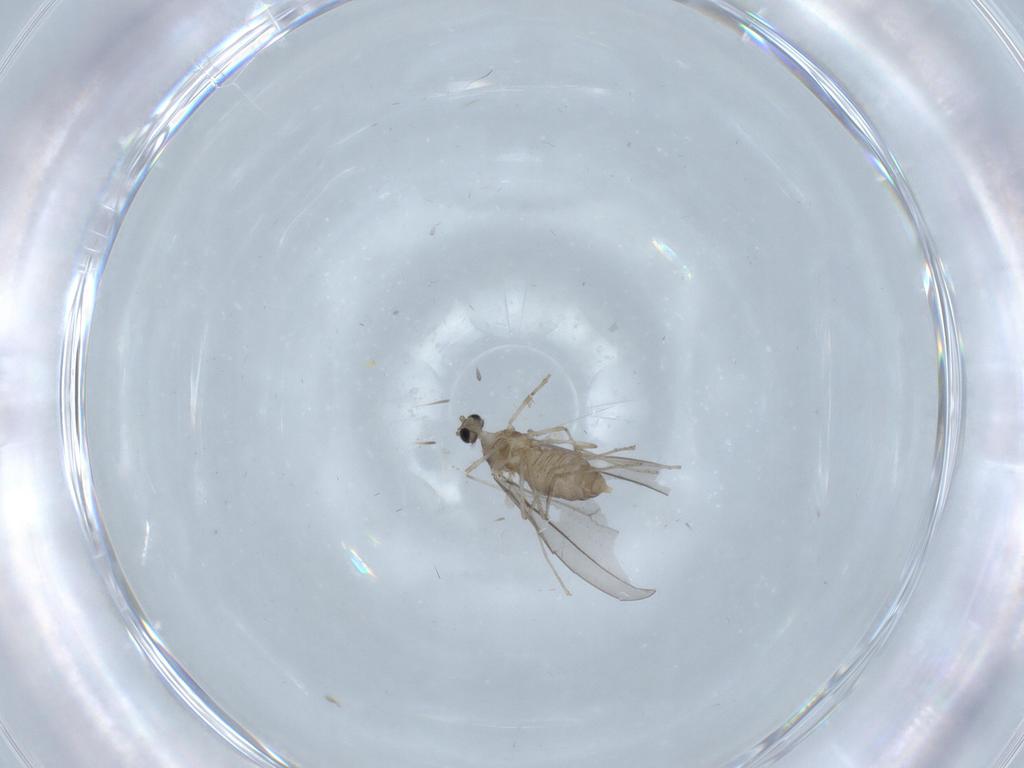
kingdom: Animalia
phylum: Arthropoda
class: Insecta
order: Diptera
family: Cecidomyiidae
